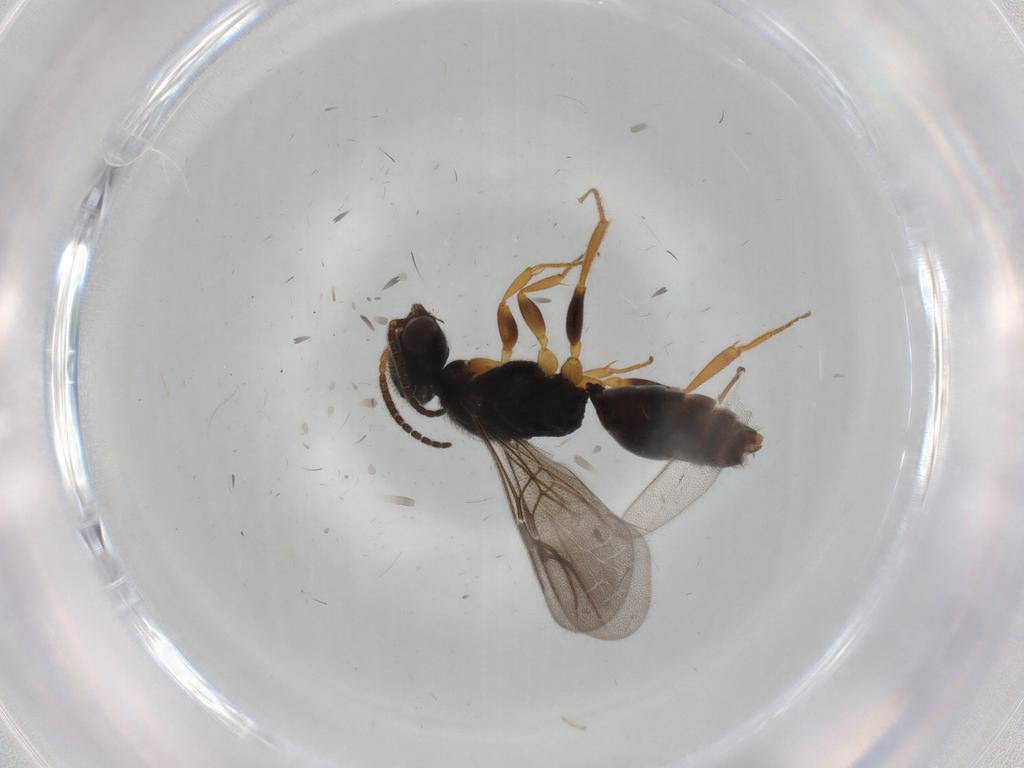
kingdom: Animalia
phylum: Arthropoda
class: Insecta
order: Hymenoptera
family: Bethylidae
